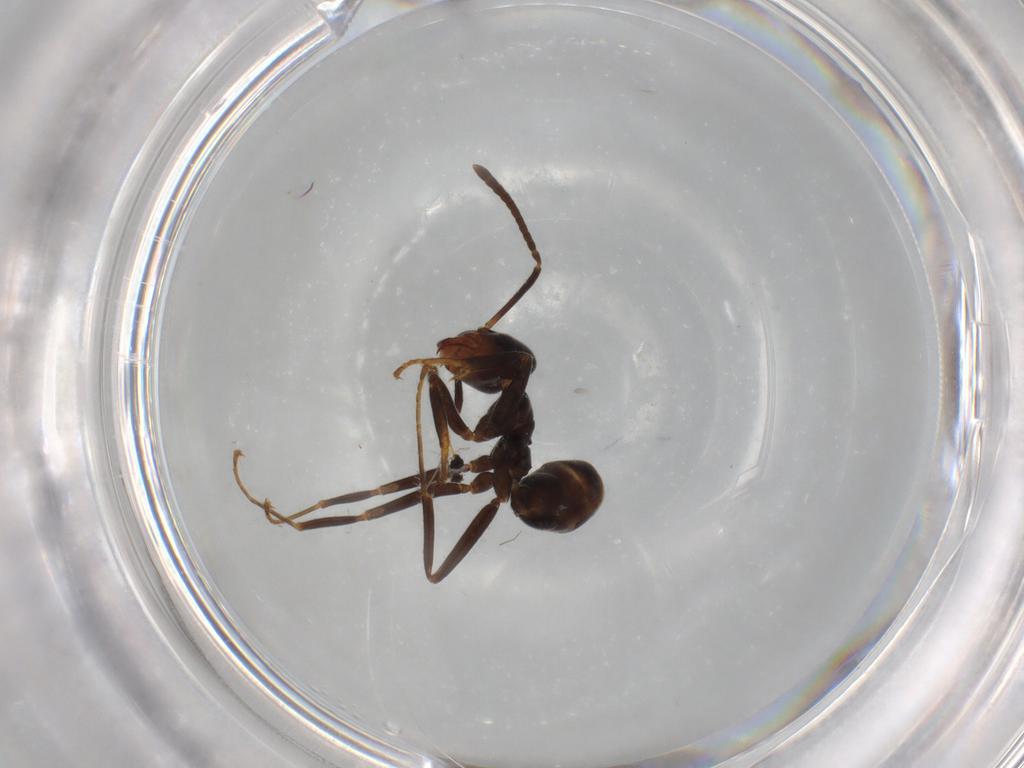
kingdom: Animalia
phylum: Arthropoda
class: Insecta
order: Hymenoptera
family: Formicidae
